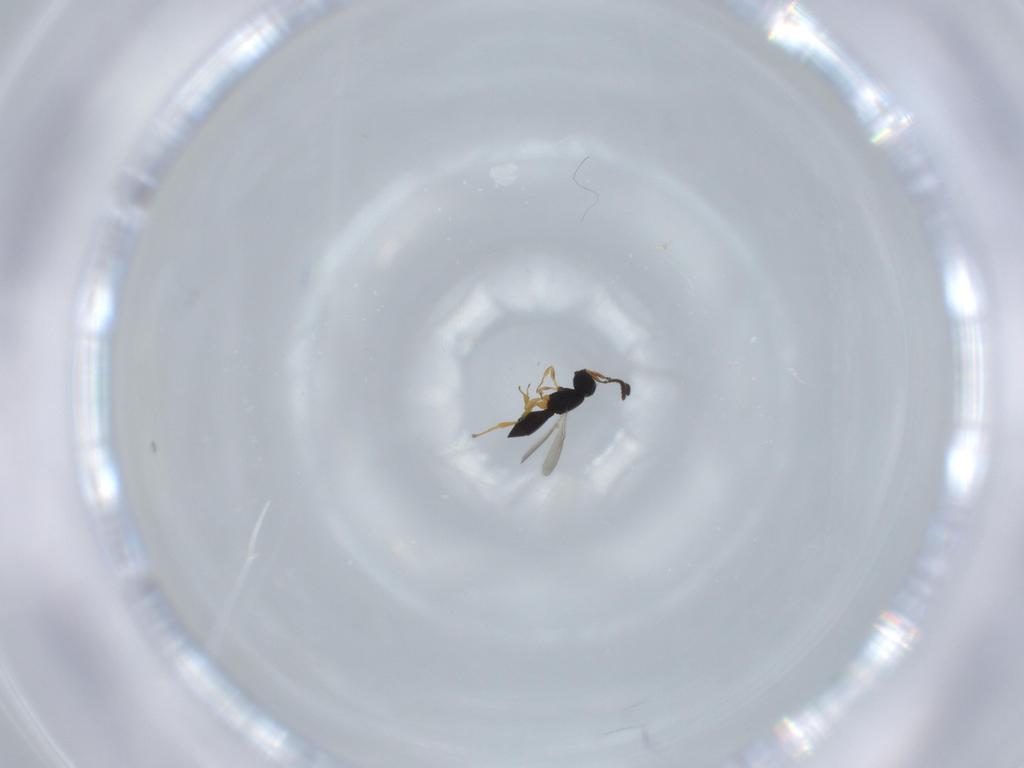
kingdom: Animalia
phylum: Arthropoda
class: Insecta
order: Hymenoptera
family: Scelionidae
